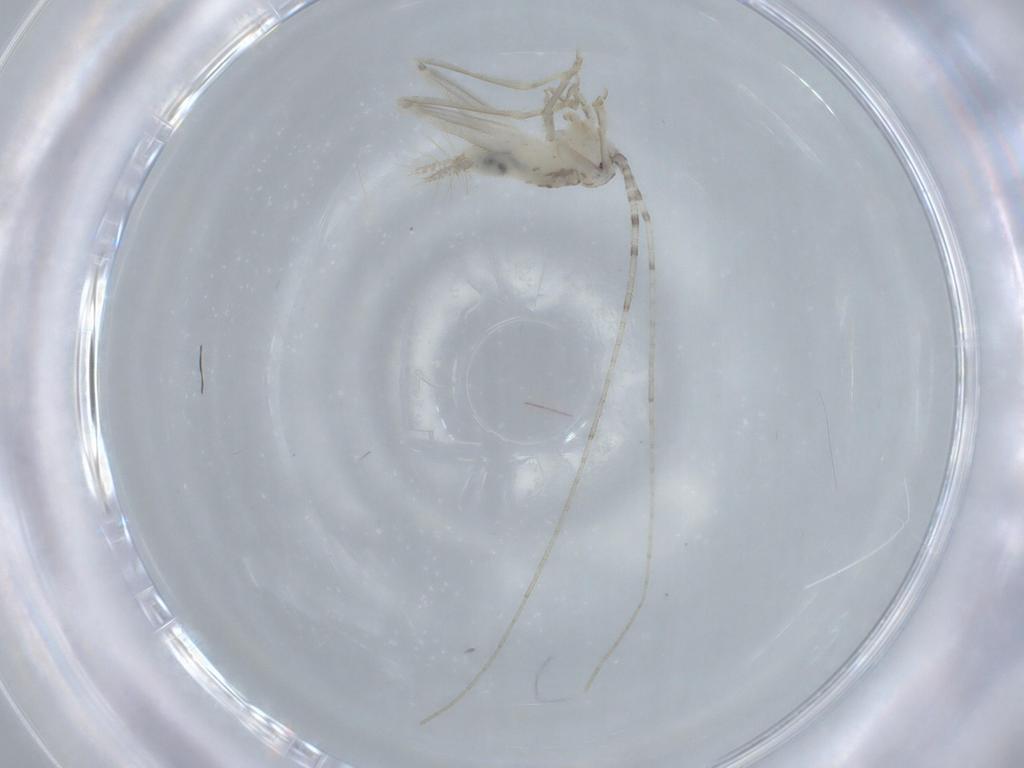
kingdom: Animalia
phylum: Arthropoda
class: Insecta
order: Orthoptera
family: Trigonidiidae
